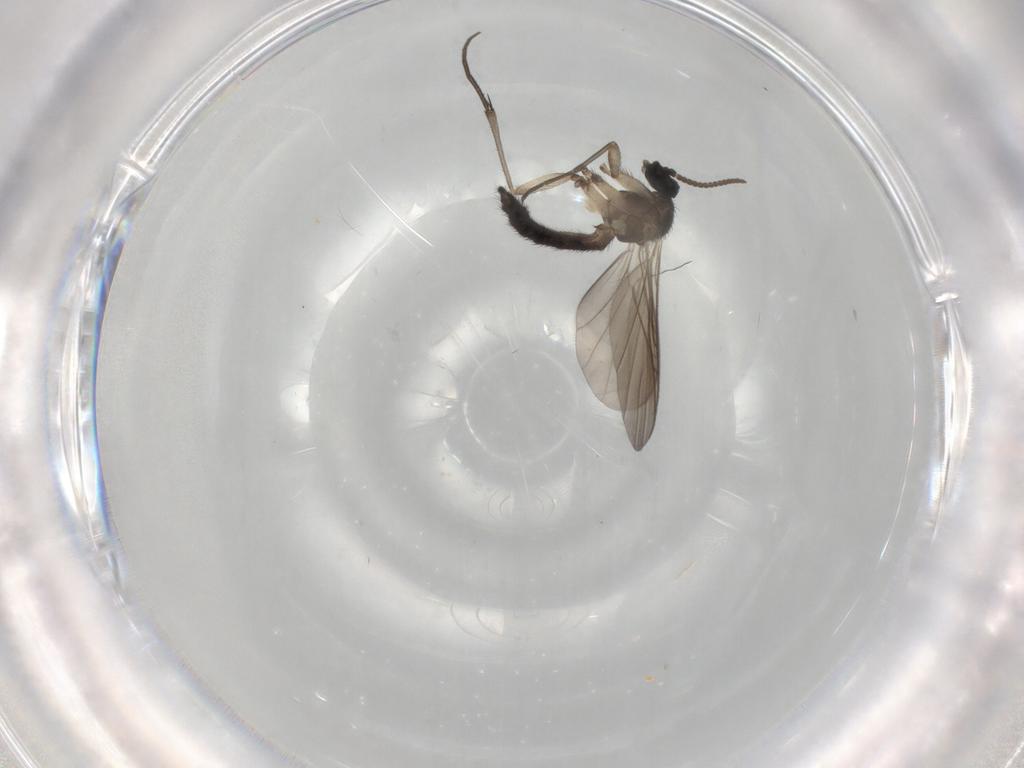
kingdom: Animalia
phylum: Arthropoda
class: Insecta
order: Diptera
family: Keroplatidae
